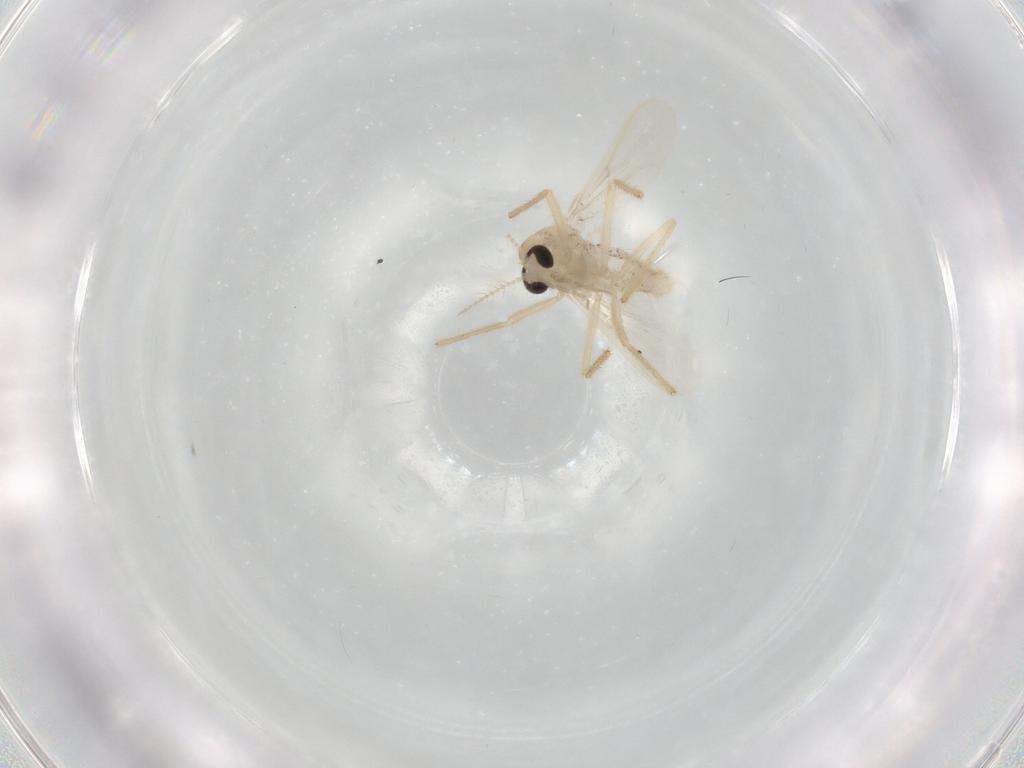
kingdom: Animalia
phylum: Arthropoda
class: Insecta
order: Diptera
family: Chironomidae
